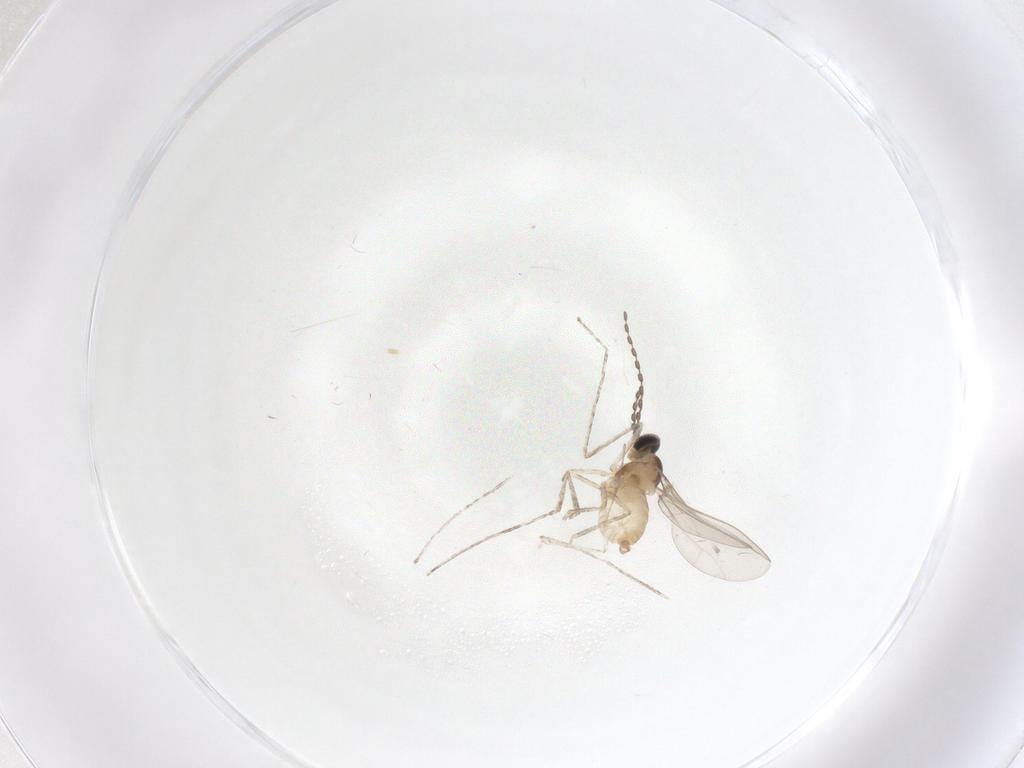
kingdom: Animalia
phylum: Arthropoda
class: Insecta
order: Diptera
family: Cecidomyiidae
